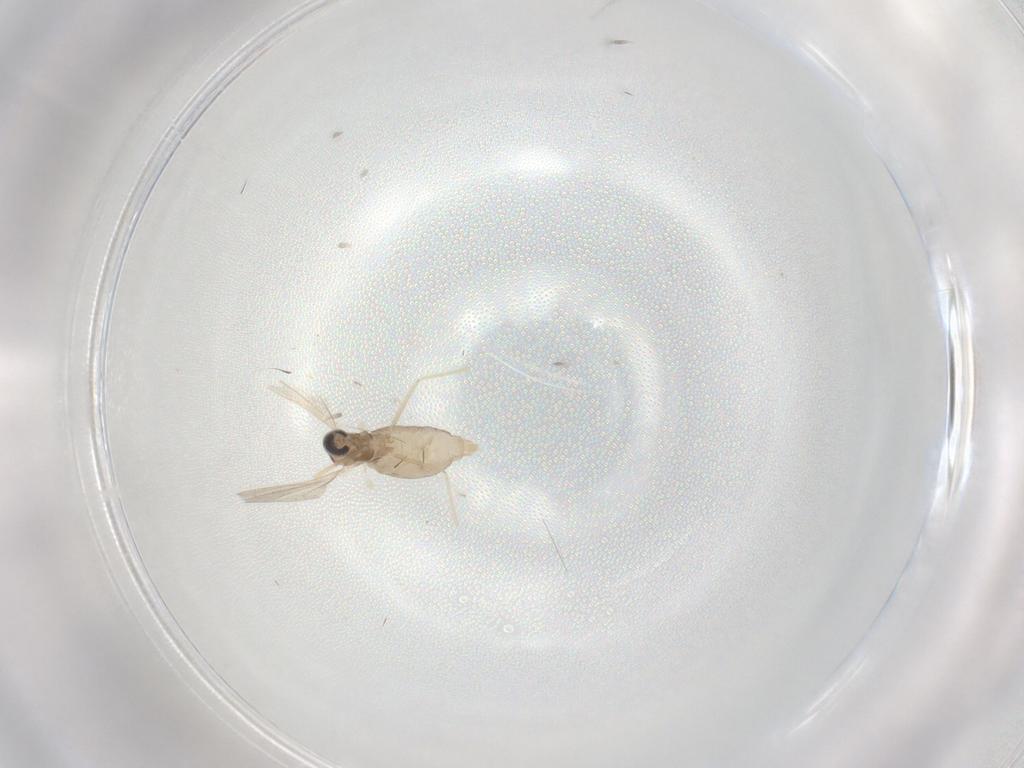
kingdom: Animalia
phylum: Arthropoda
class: Insecta
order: Diptera
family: Cecidomyiidae
